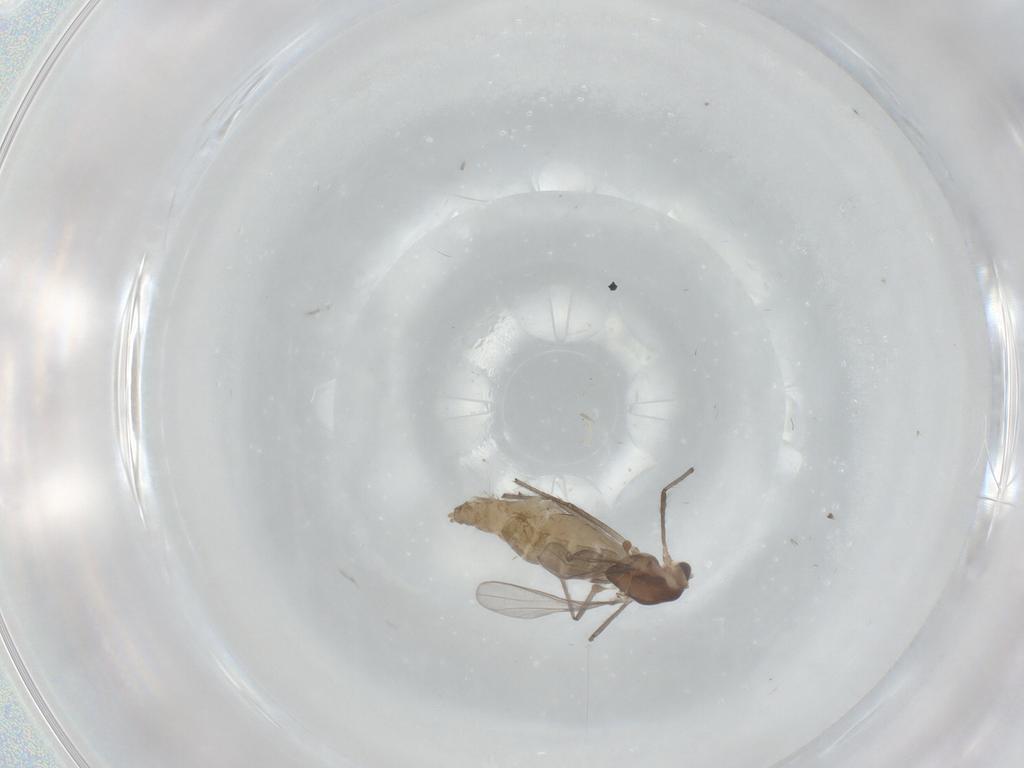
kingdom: Animalia
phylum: Arthropoda
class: Insecta
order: Diptera
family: Chironomidae
